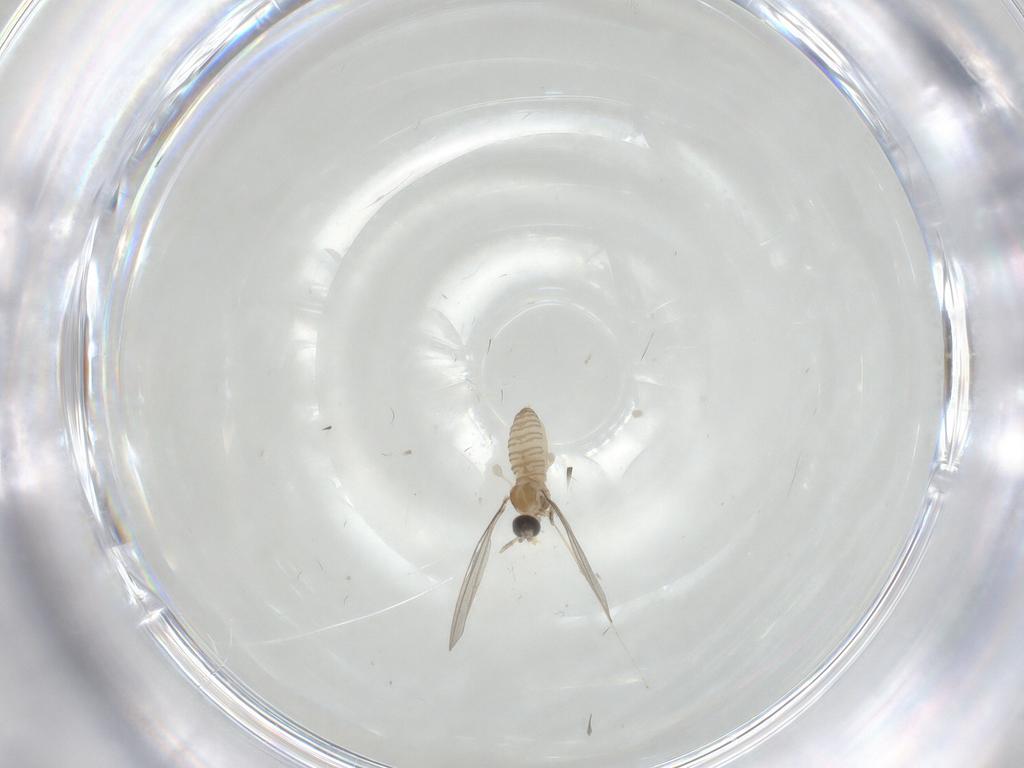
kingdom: Animalia
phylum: Arthropoda
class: Insecta
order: Diptera
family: Cecidomyiidae
